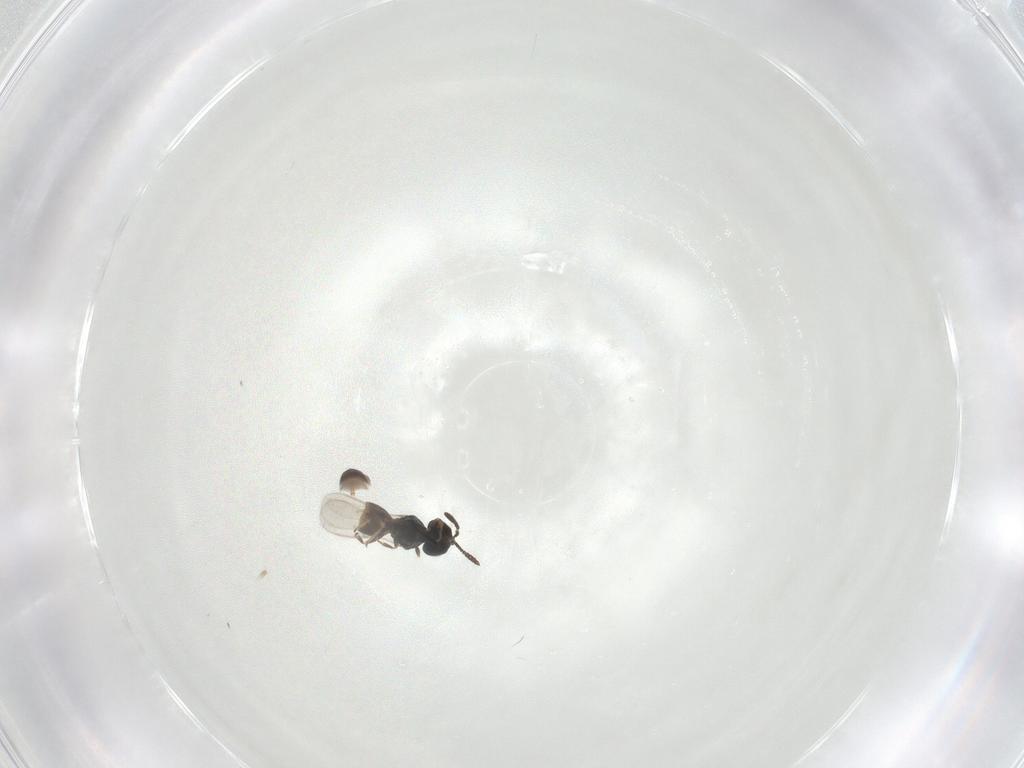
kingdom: Animalia
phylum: Arthropoda
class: Insecta
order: Hymenoptera
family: Scelionidae
